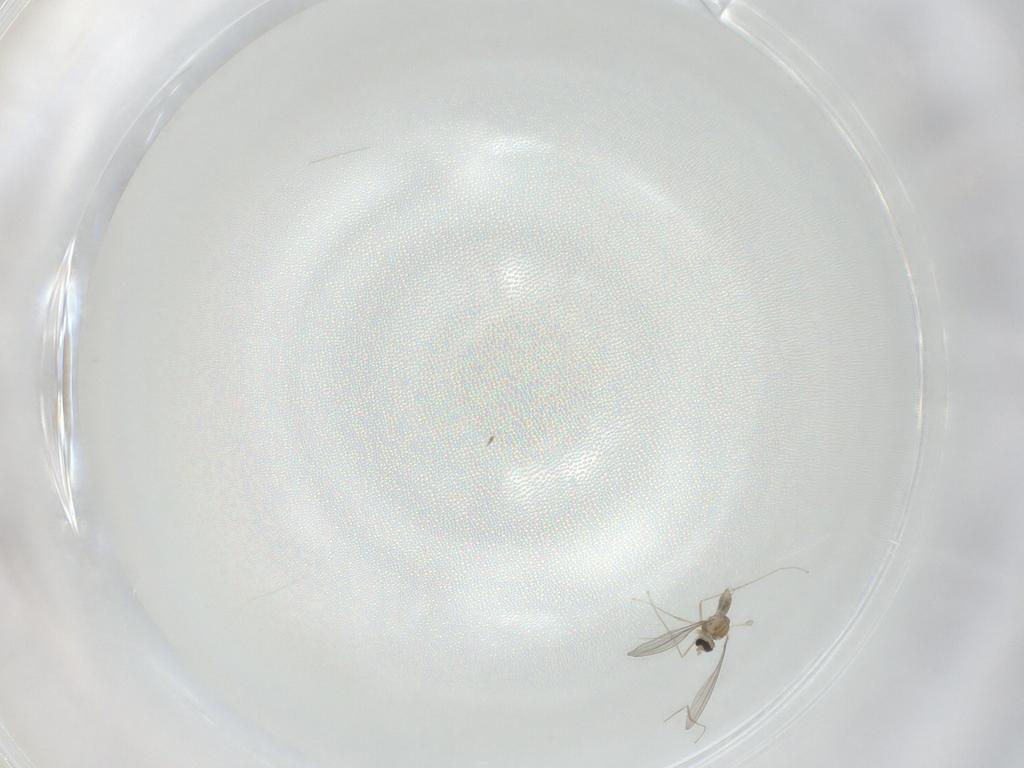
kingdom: Animalia
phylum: Arthropoda
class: Insecta
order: Diptera
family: Cecidomyiidae
